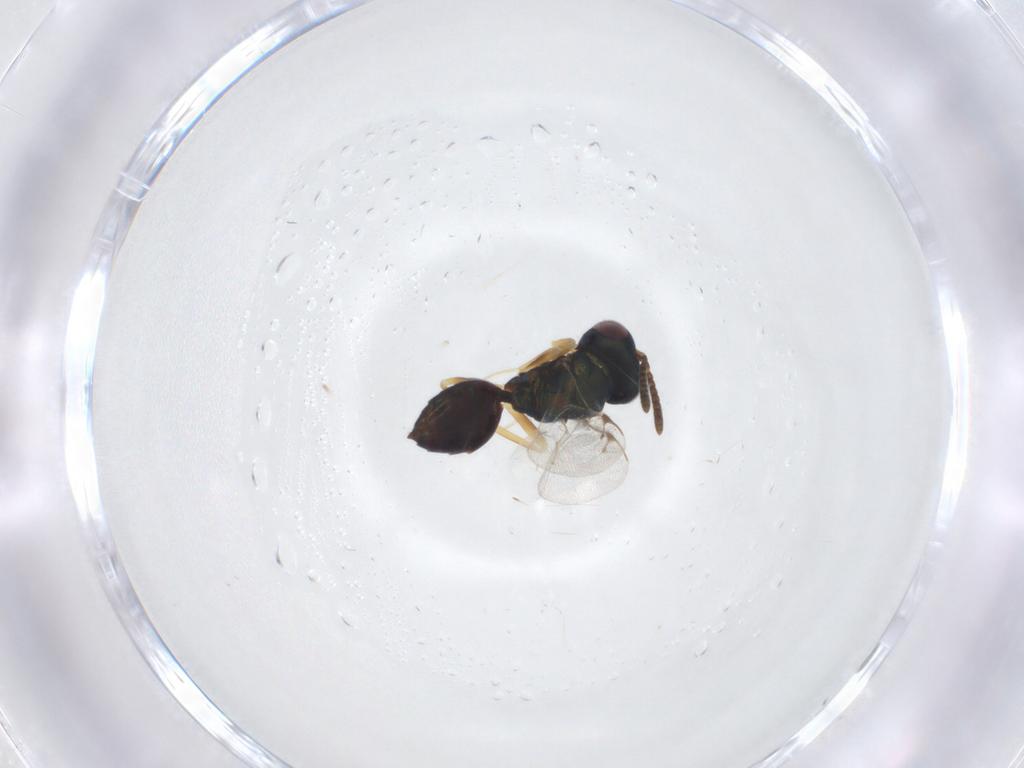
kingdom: Animalia
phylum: Arthropoda
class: Insecta
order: Hymenoptera
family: Pteromalidae
